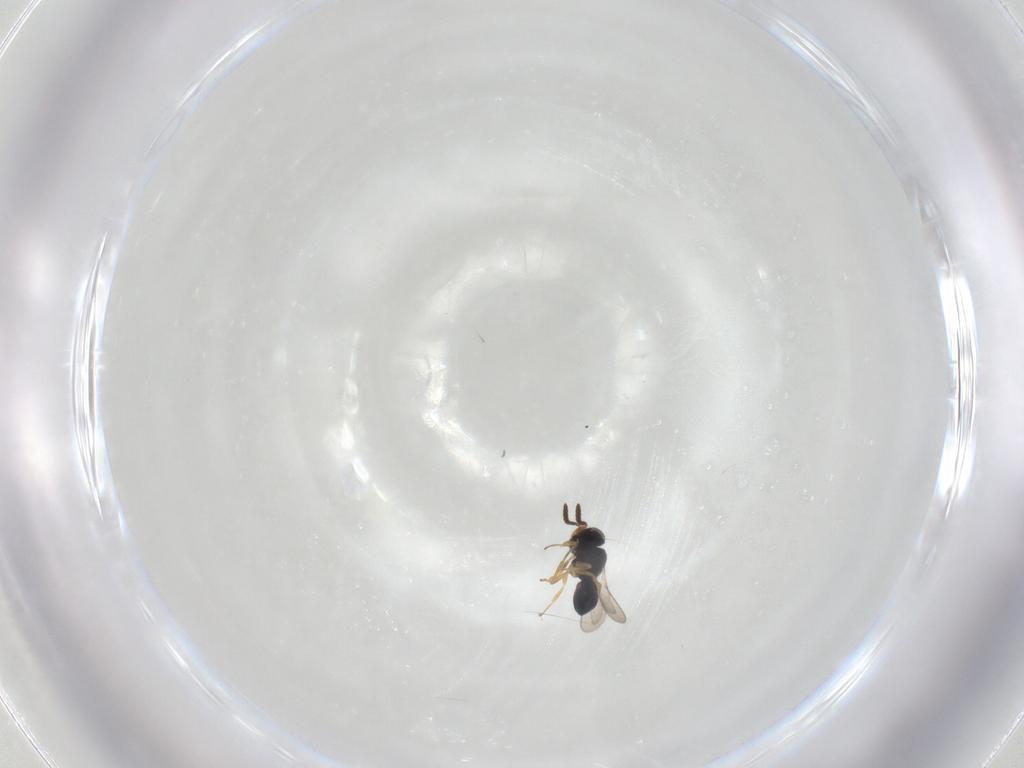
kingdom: Animalia
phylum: Arthropoda
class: Insecta
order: Hymenoptera
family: Scelionidae
